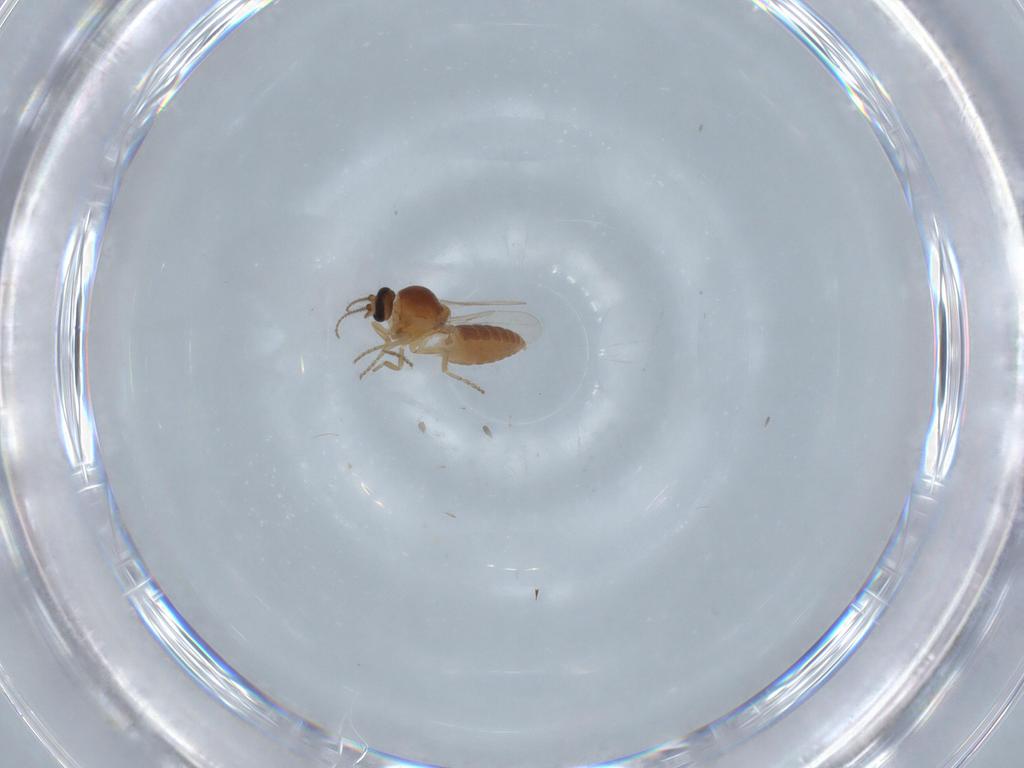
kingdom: Animalia
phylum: Arthropoda
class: Insecta
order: Diptera
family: Ceratopogonidae
